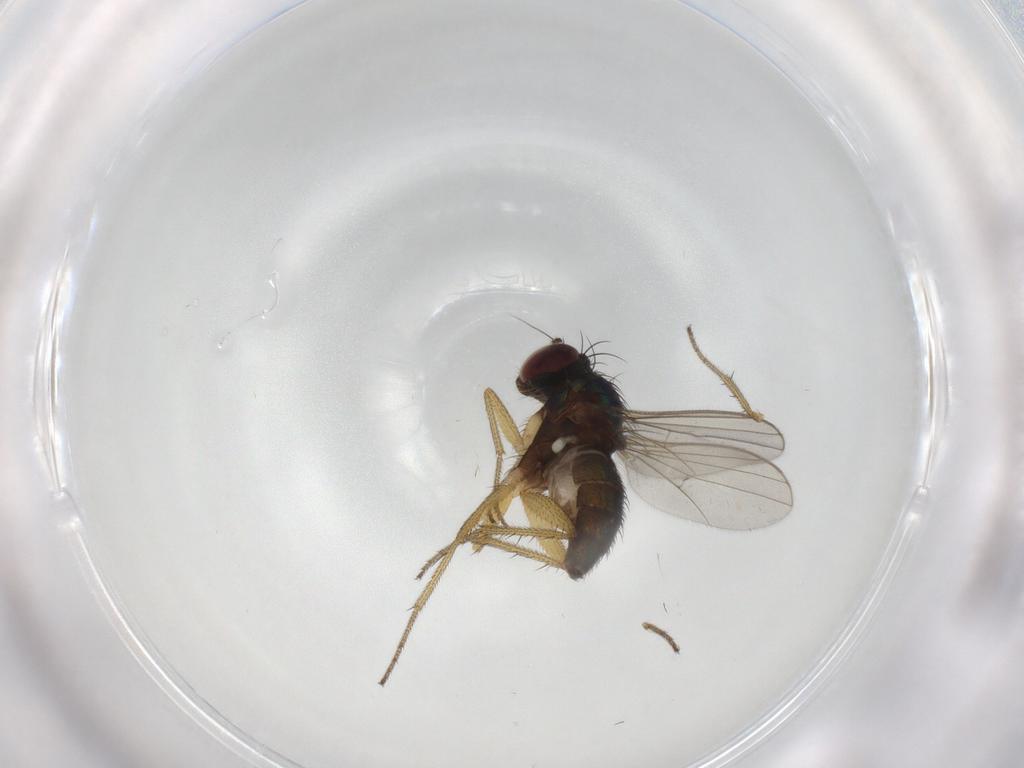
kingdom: Animalia
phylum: Arthropoda
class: Insecta
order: Diptera
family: Dolichopodidae
